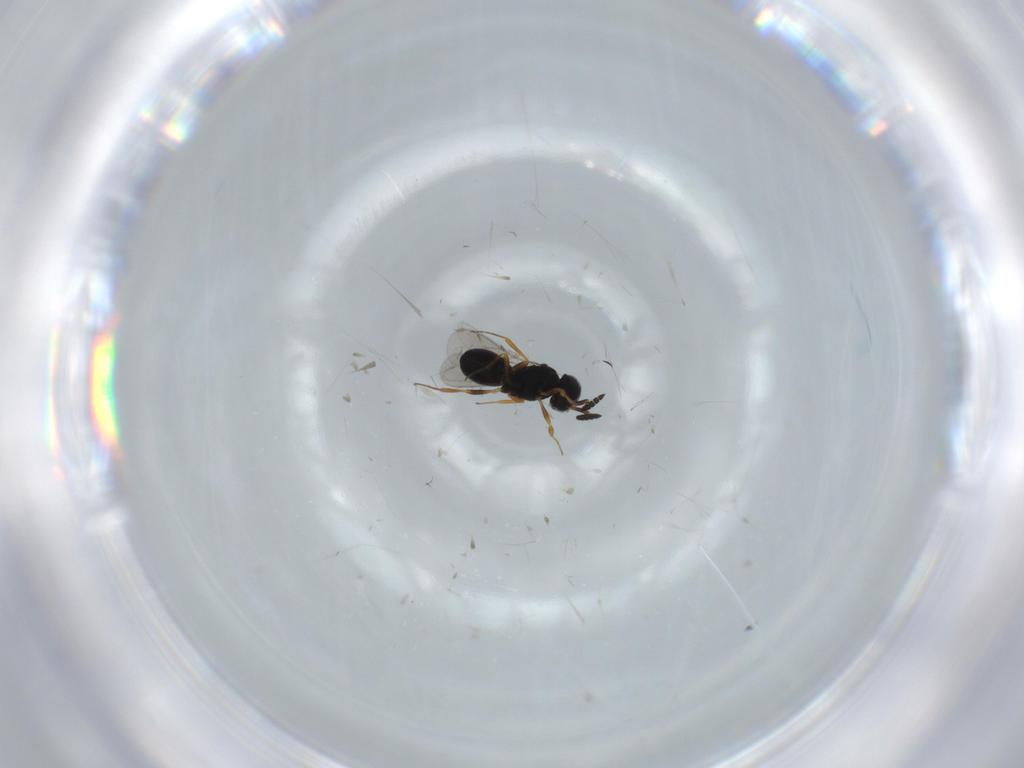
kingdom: Animalia
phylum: Arthropoda
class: Insecta
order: Hymenoptera
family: Scelionidae
